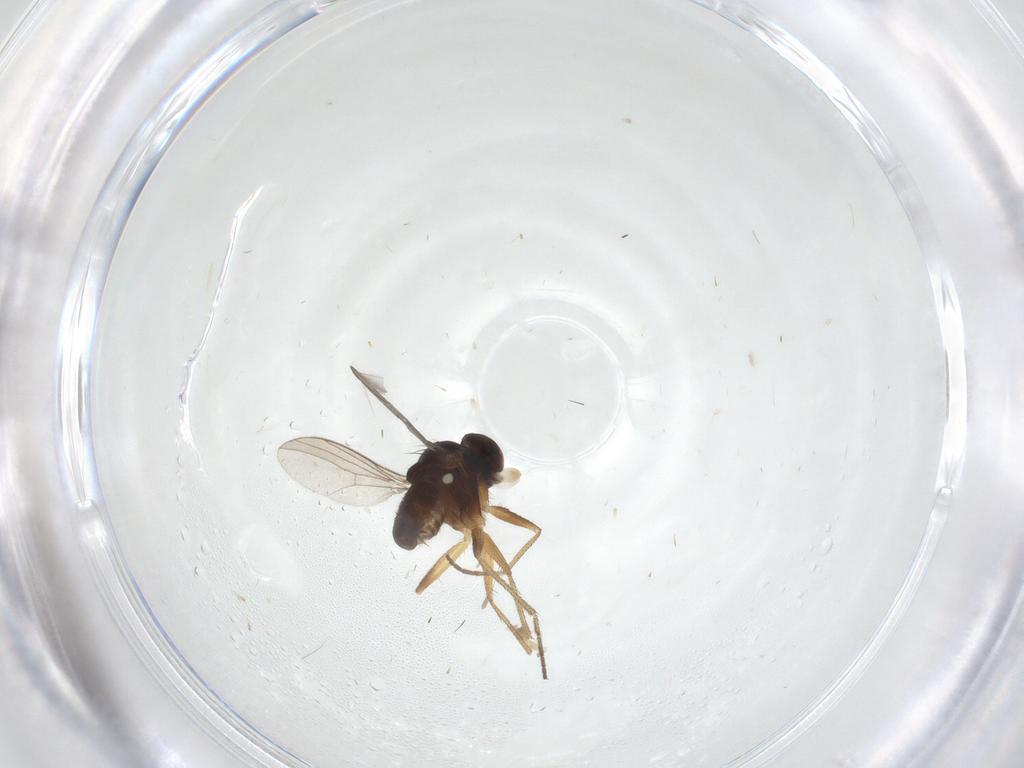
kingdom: Animalia
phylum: Arthropoda
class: Insecta
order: Diptera
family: Dolichopodidae
